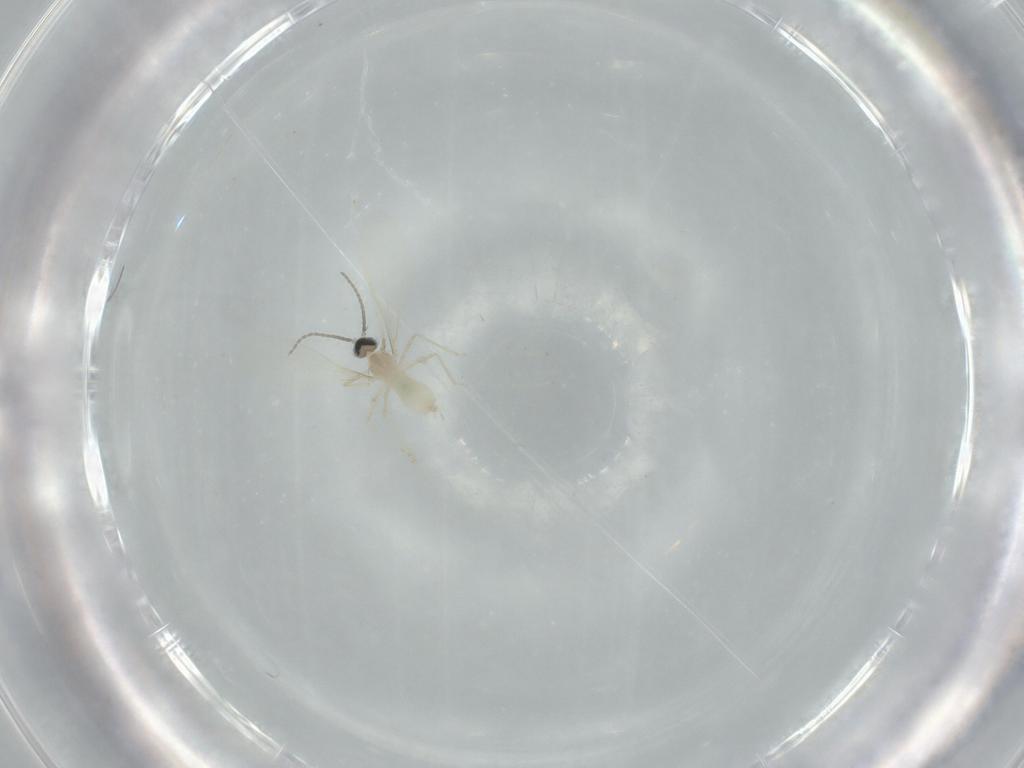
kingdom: Animalia
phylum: Arthropoda
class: Insecta
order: Diptera
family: Cecidomyiidae
